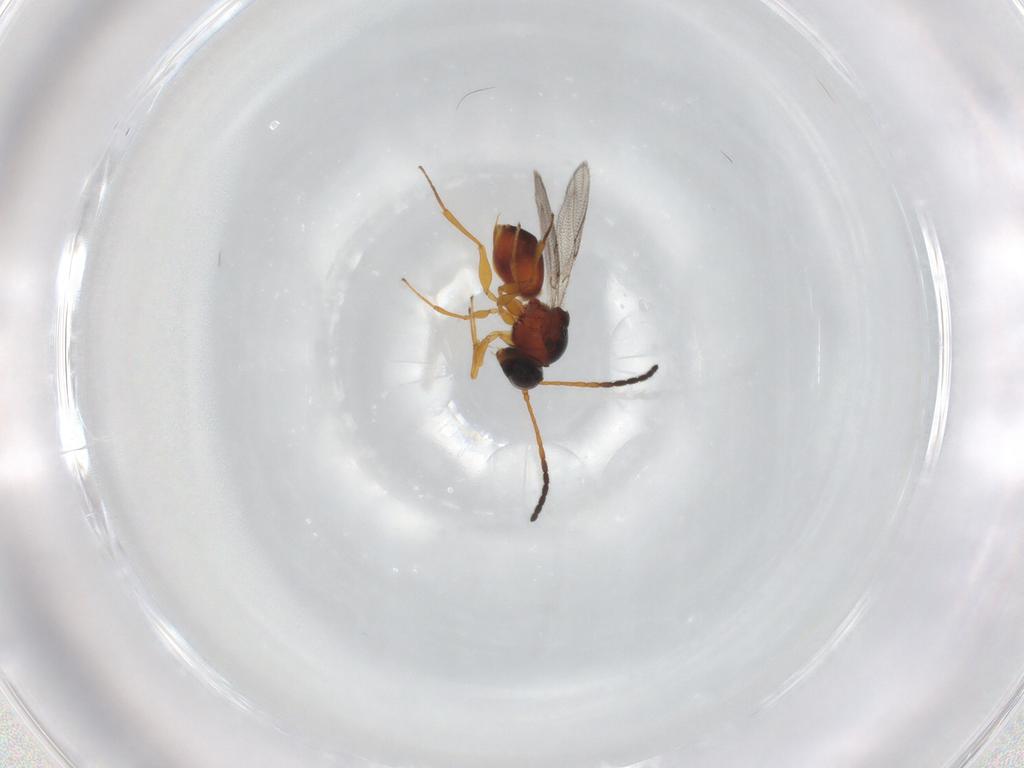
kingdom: Animalia
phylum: Arthropoda
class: Insecta
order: Hymenoptera
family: Figitidae
